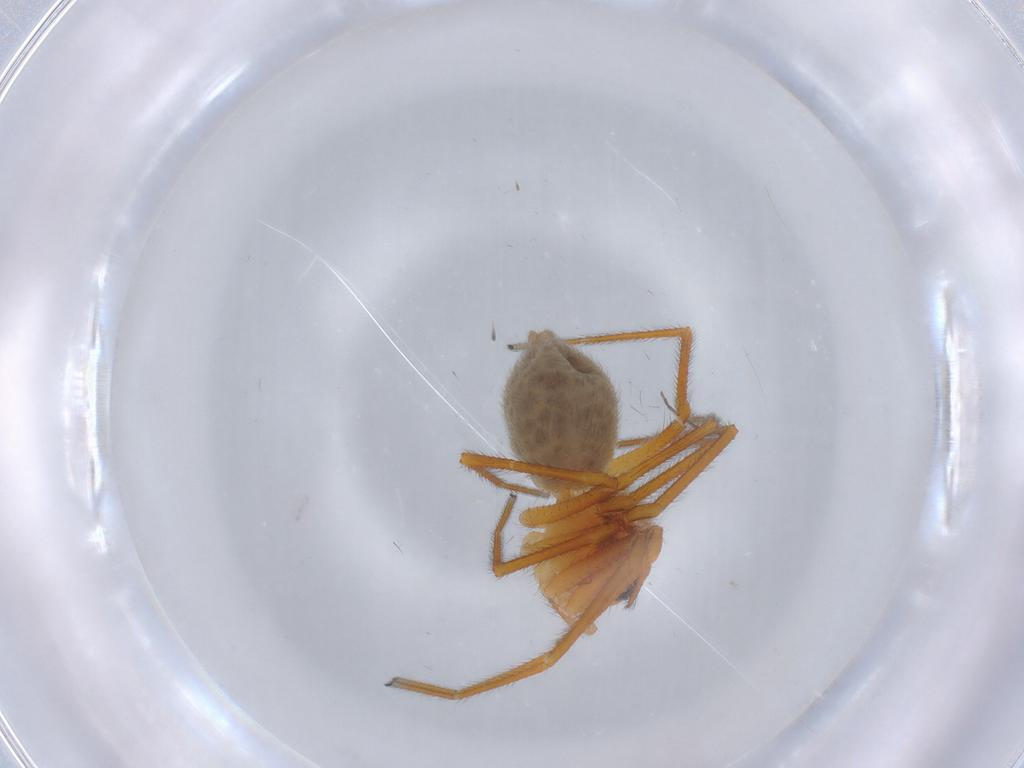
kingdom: Animalia
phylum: Arthropoda
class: Arachnida
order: Araneae
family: Linyphiidae
